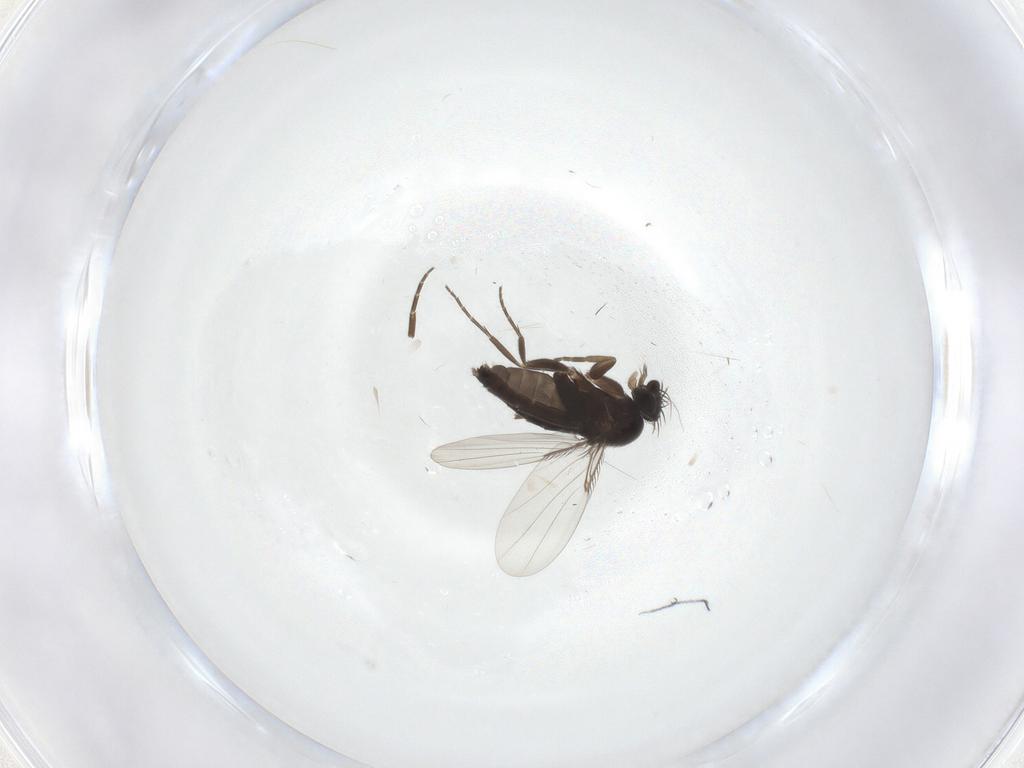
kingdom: Animalia
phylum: Arthropoda
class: Insecta
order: Diptera
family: Phoridae
